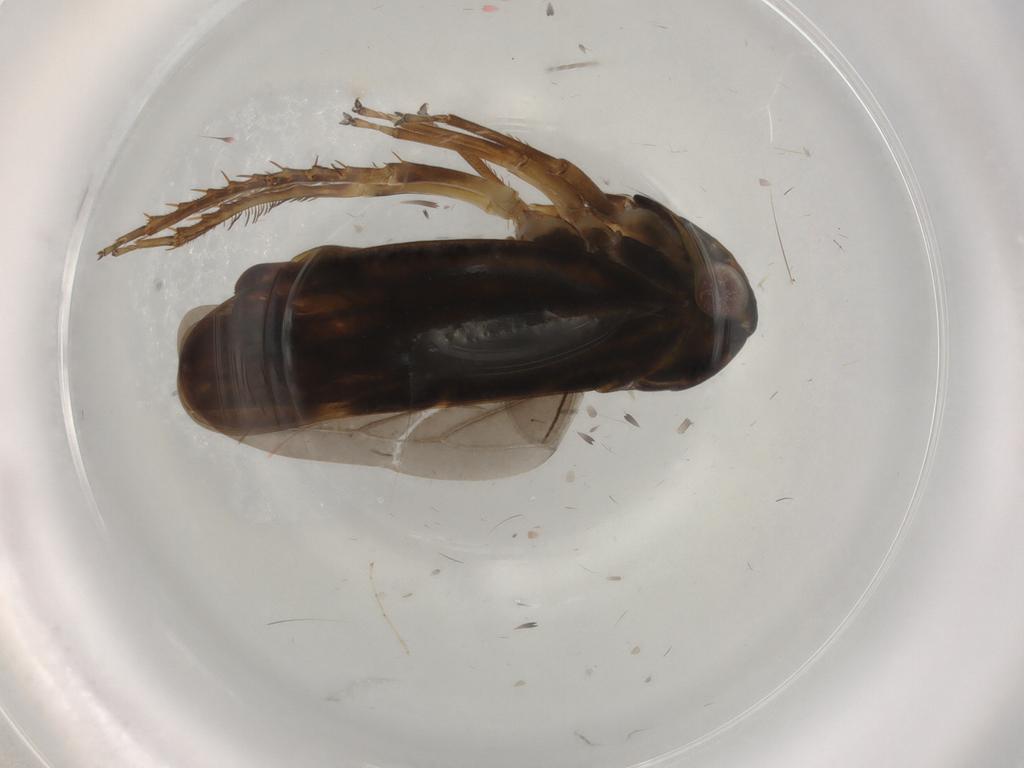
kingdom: Animalia
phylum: Arthropoda
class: Insecta
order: Hemiptera
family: Cicadellidae
